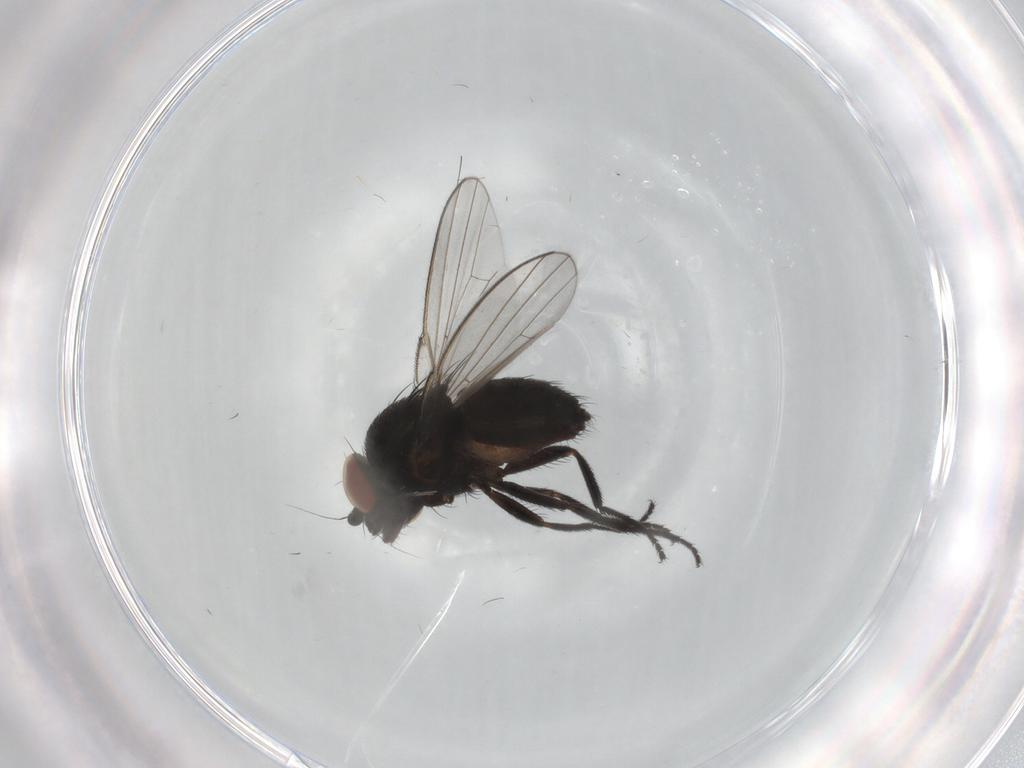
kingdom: Animalia
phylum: Arthropoda
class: Insecta
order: Diptera
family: Milichiidae
